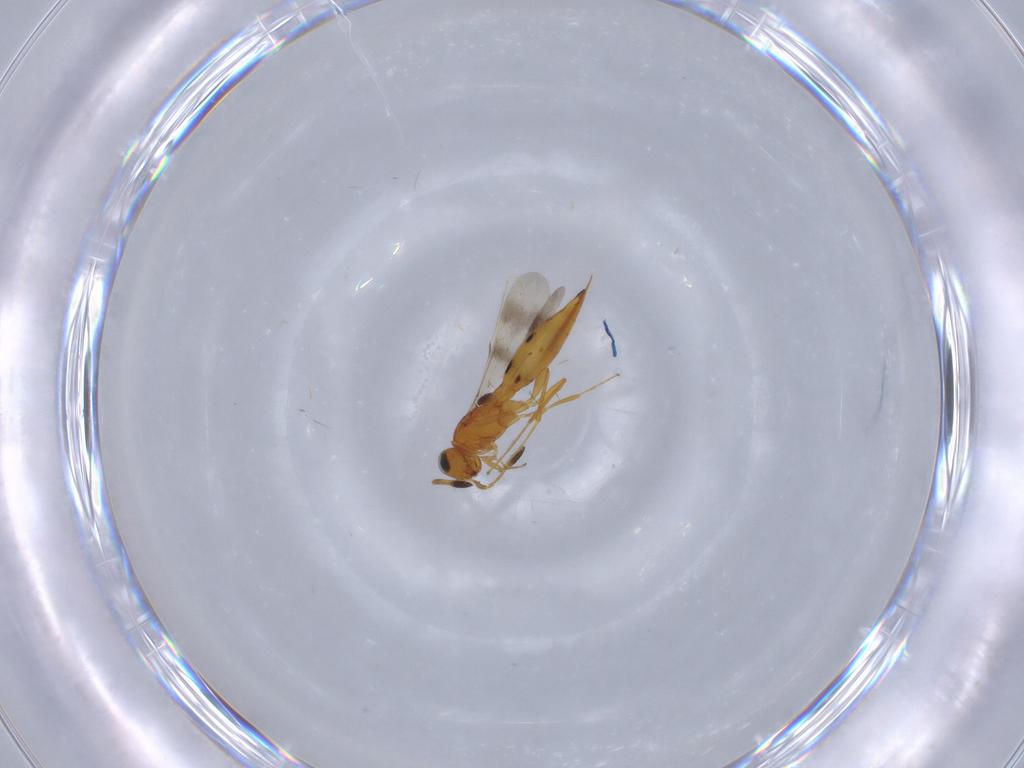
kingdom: Animalia
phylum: Arthropoda
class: Insecta
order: Hymenoptera
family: Scelionidae
